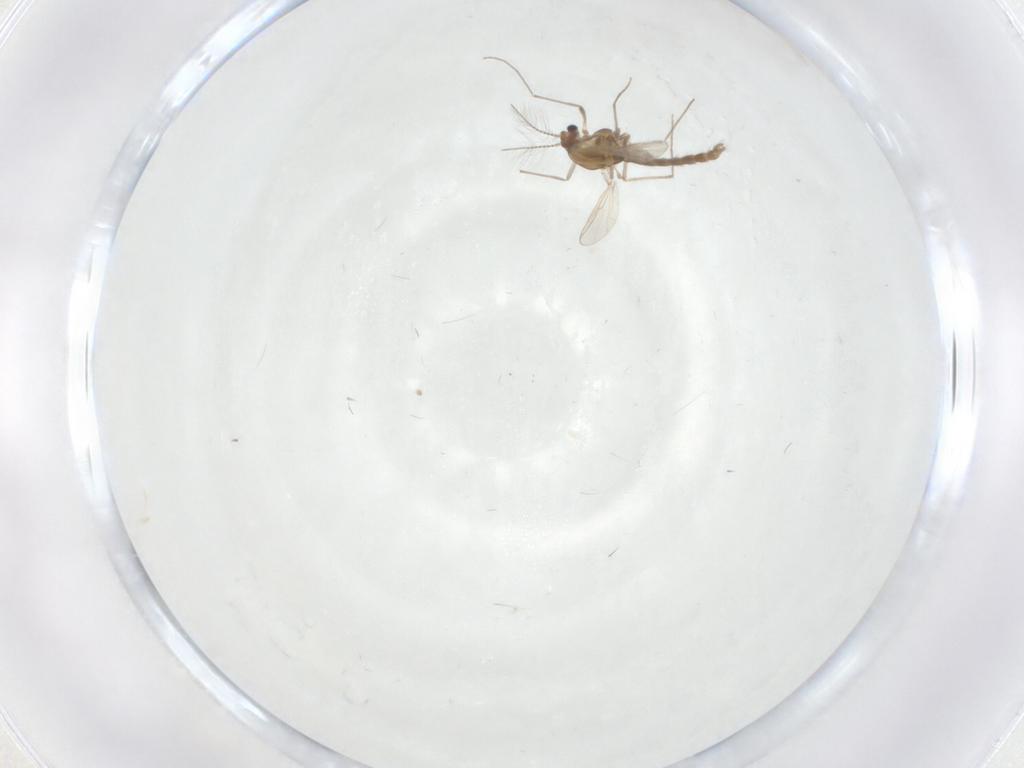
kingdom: Animalia
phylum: Arthropoda
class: Insecta
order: Diptera
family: Chironomidae
